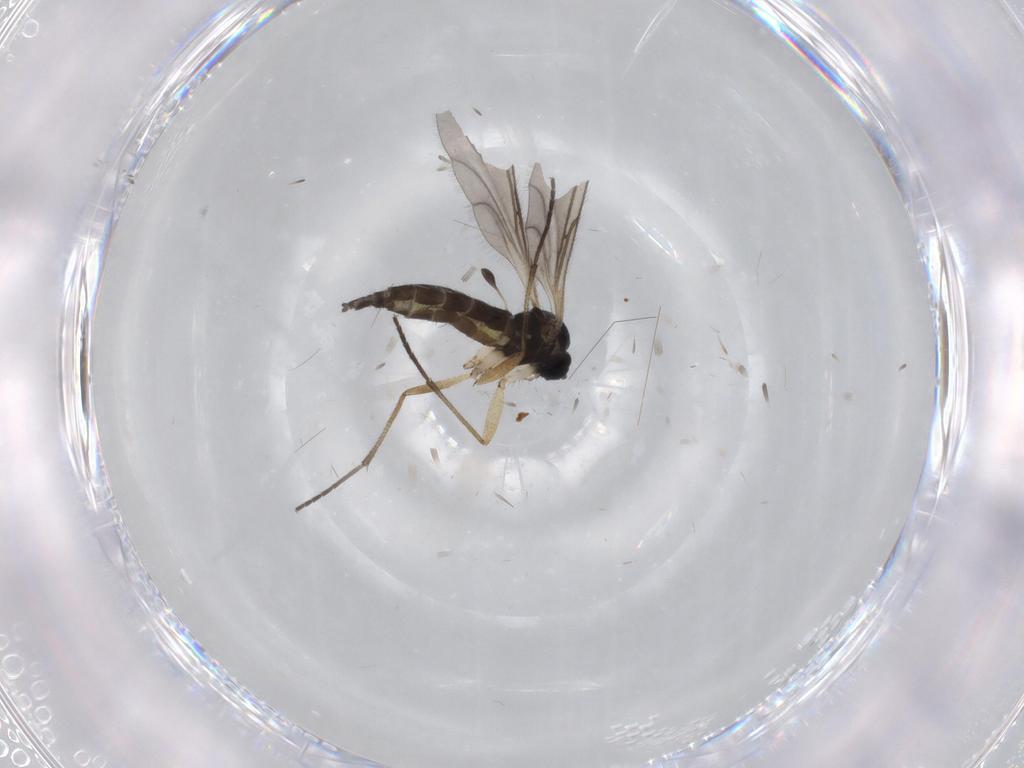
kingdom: Animalia
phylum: Arthropoda
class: Insecta
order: Diptera
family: Sciaridae
